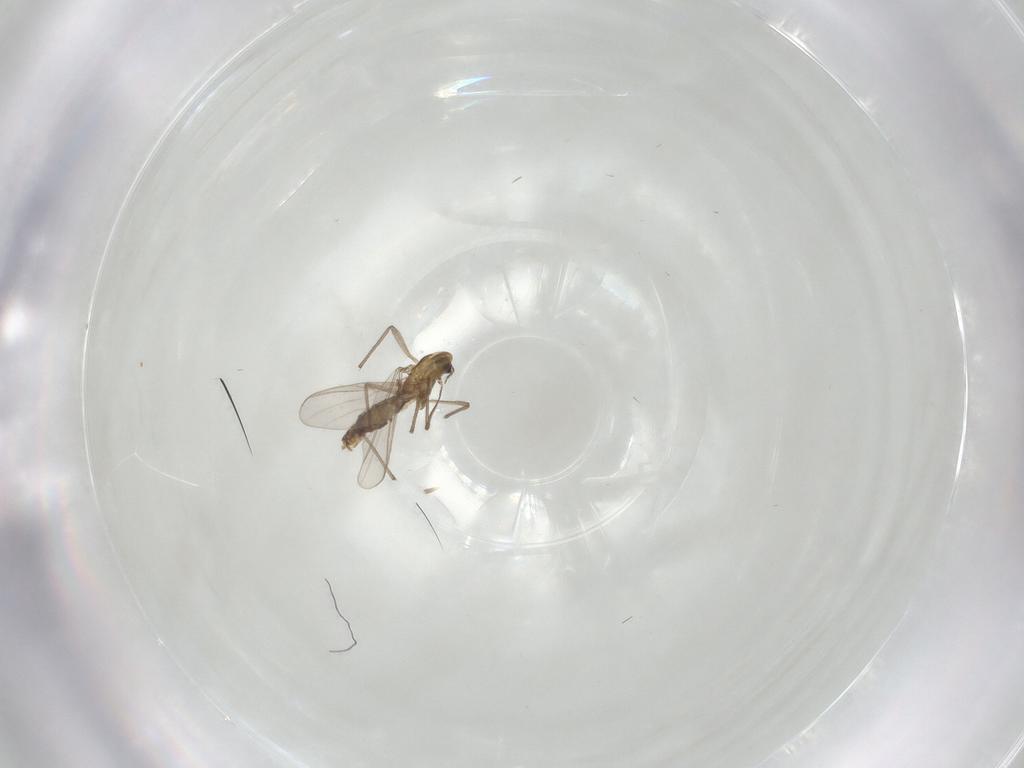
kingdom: Animalia
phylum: Arthropoda
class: Insecta
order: Diptera
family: Chironomidae
